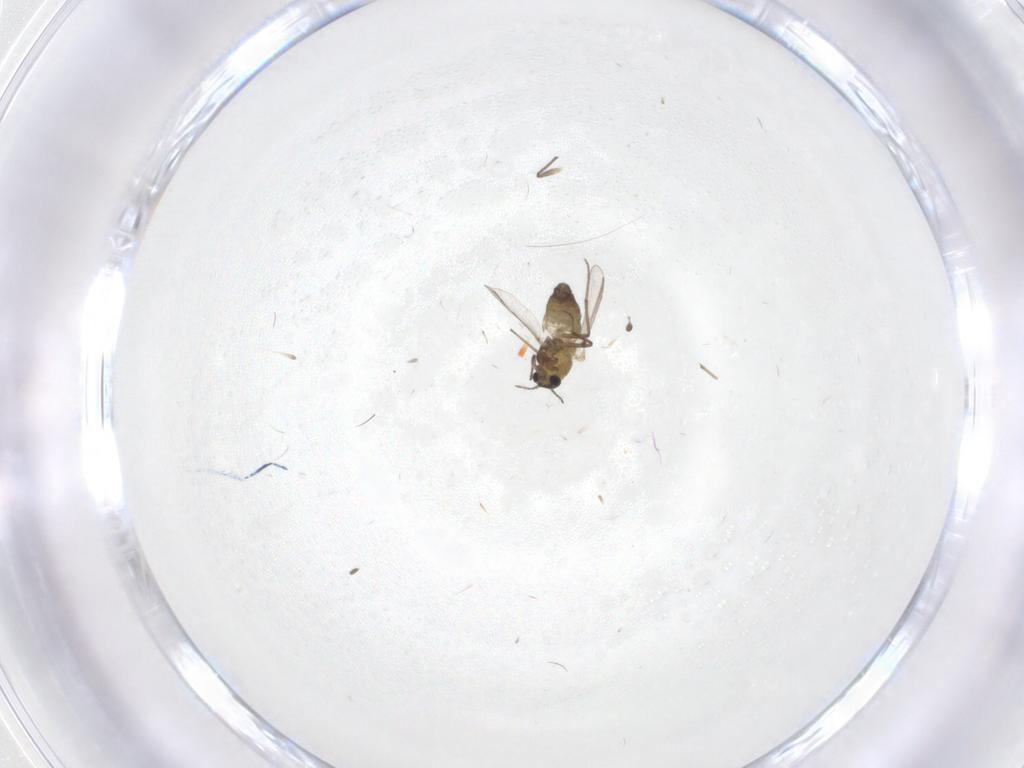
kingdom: Animalia
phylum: Arthropoda
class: Insecta
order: Diptera
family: Chironomidae
